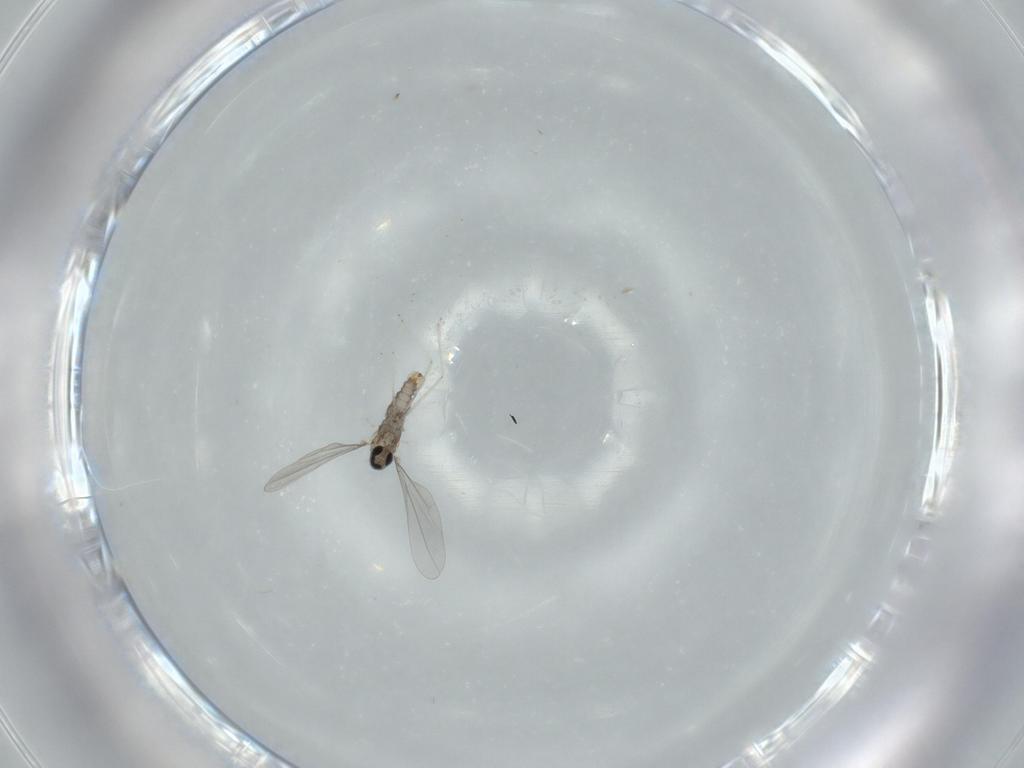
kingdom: Animalia
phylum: Arthropoda
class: Insecta
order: Diptera
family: Cecidomyiidae
